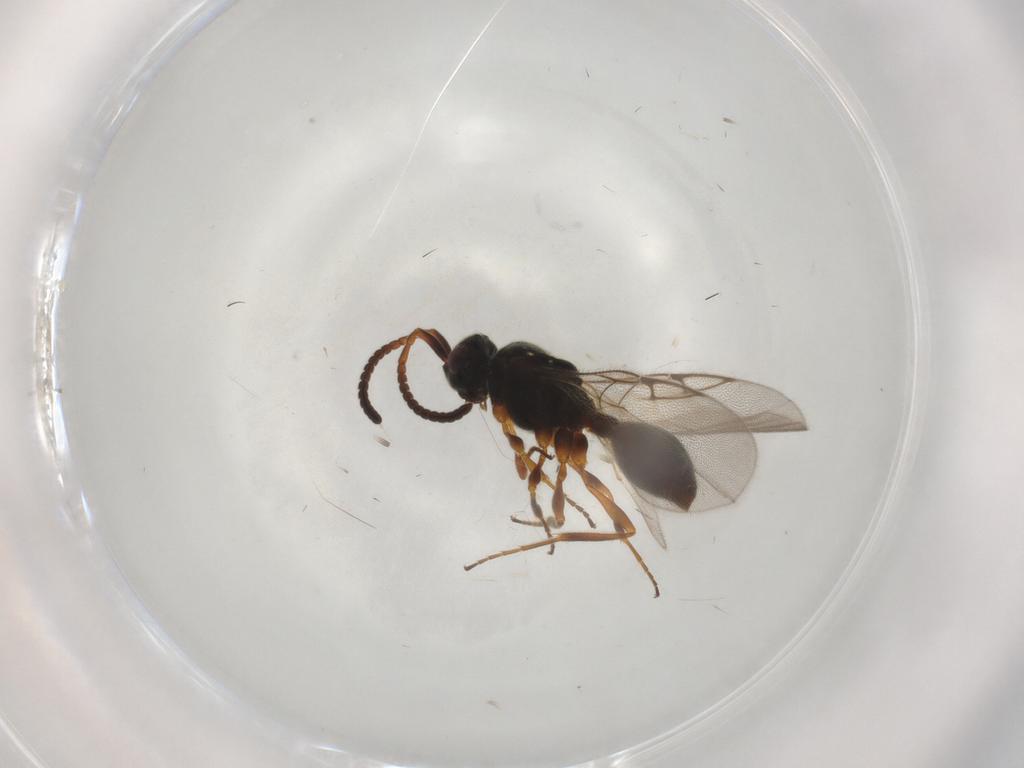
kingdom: Animalia
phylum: Arthropoda
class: Insecta
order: Hymenoptera
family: Diapriidae
